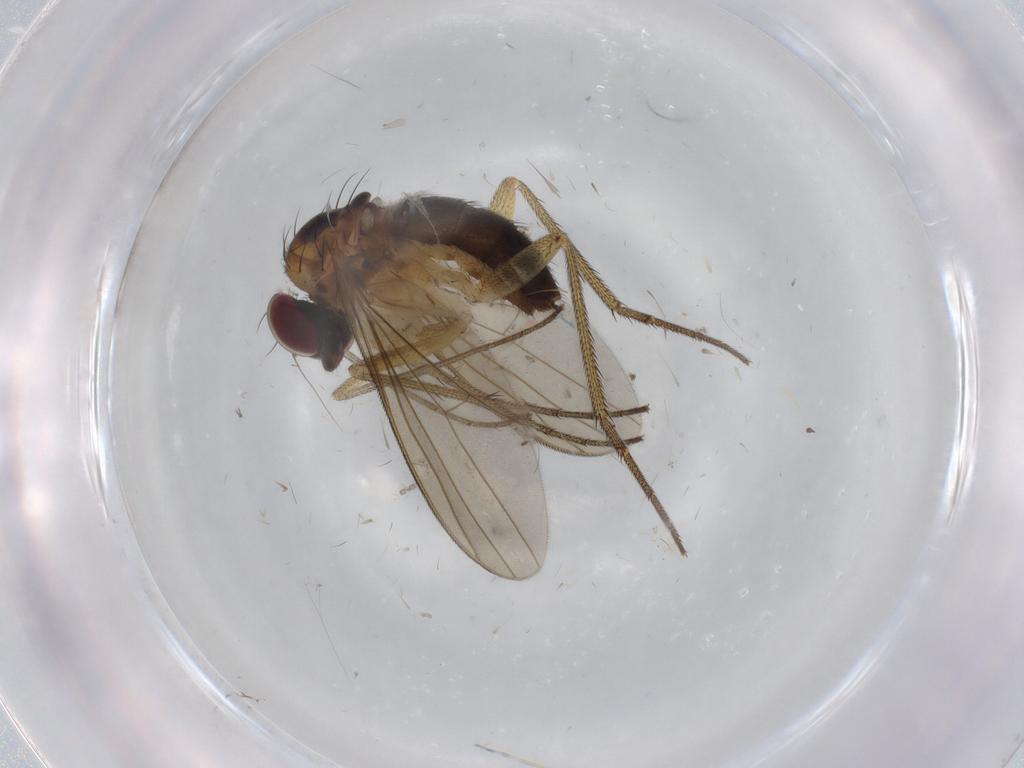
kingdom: Animalia
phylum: Arthropoda
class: Insecta
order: Diptera
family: Dolichopodidae
